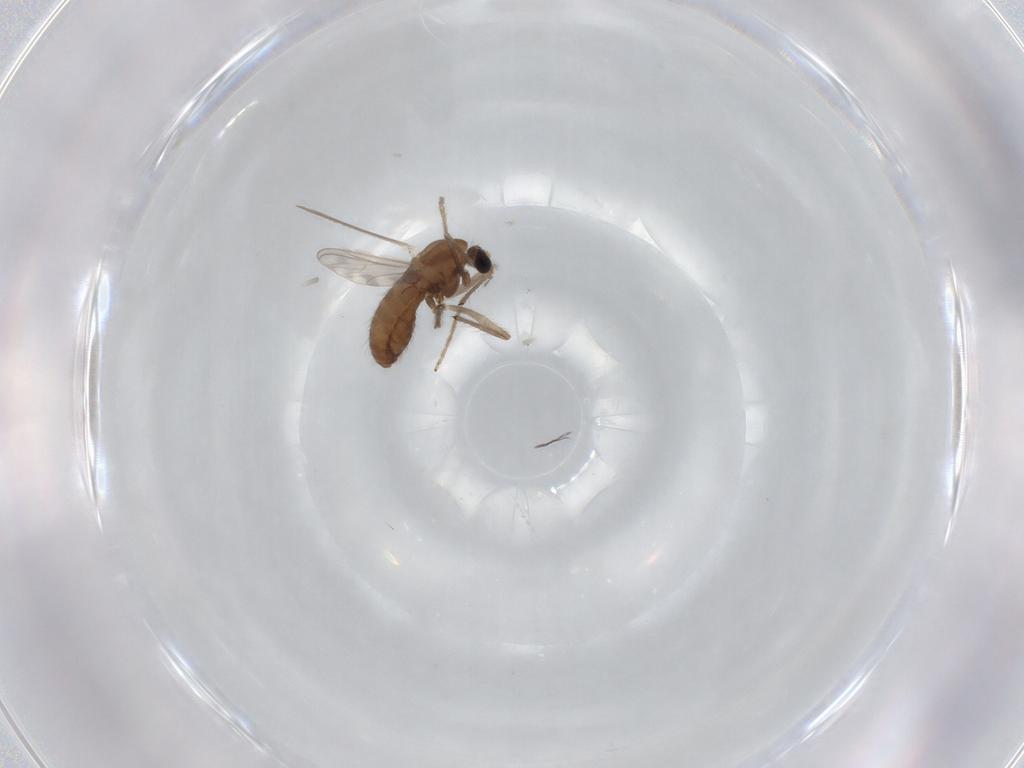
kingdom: Animalia
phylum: Arthropoda
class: Insecta
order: Diptera
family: Chironomidae
